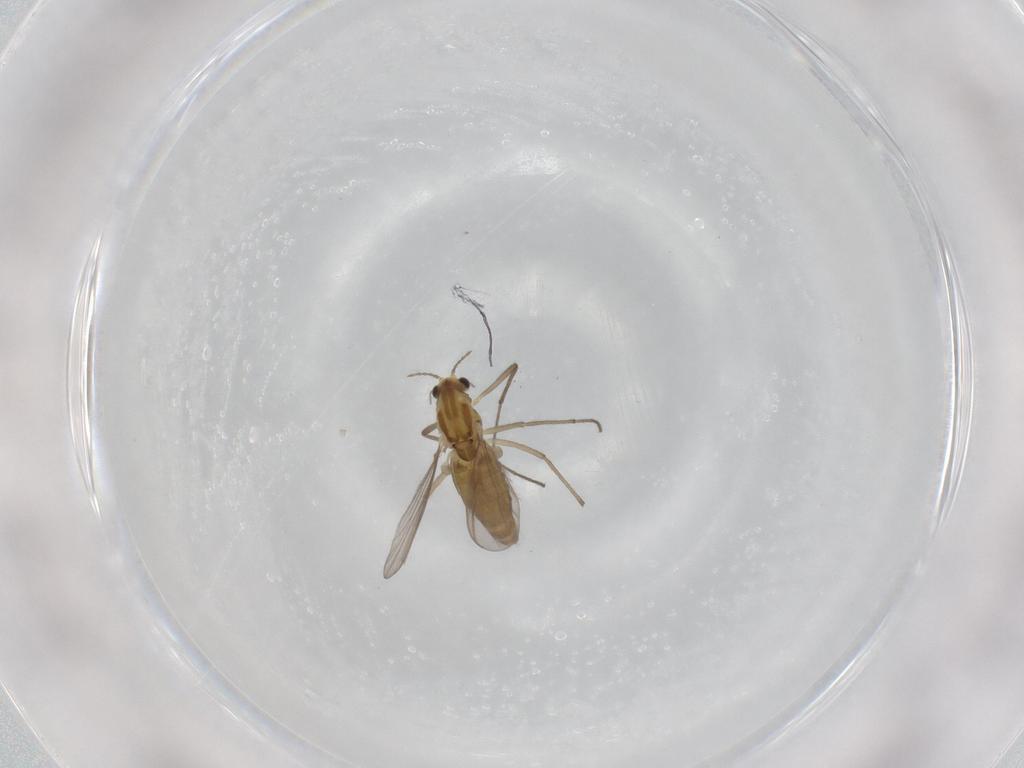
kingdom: Animalia
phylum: Arthropoda
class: Insecta
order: Diptera
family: Chironomidae
